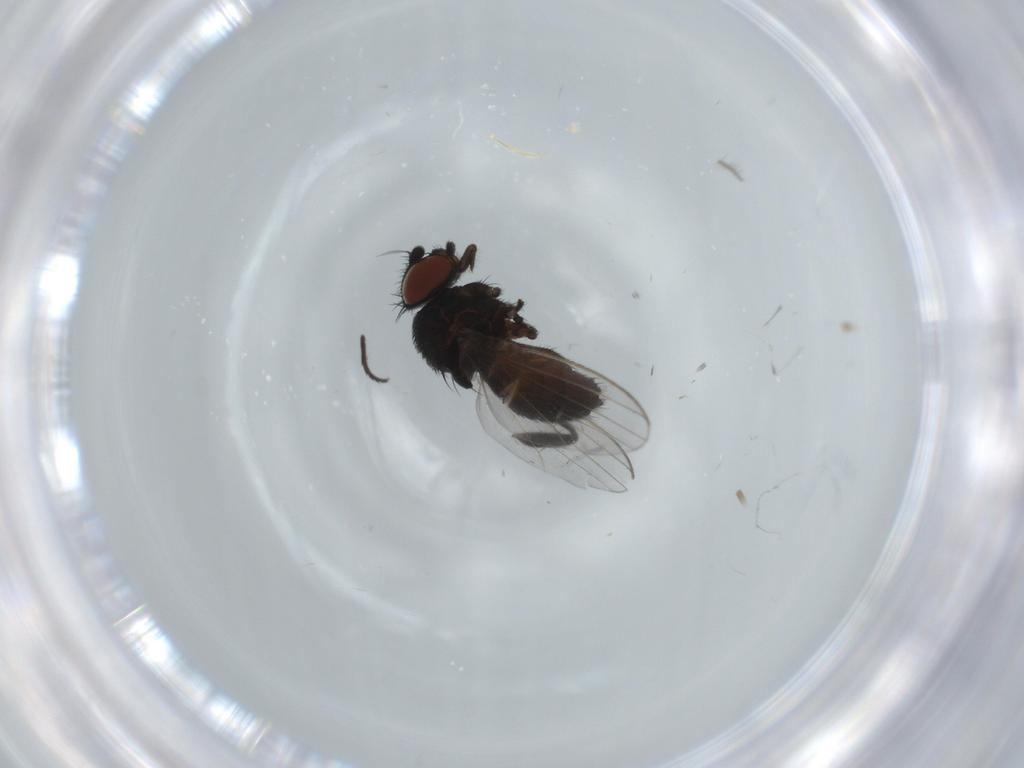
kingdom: Animalia
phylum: Arthropoda
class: Insecta
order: Diptera
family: Milichiidae
